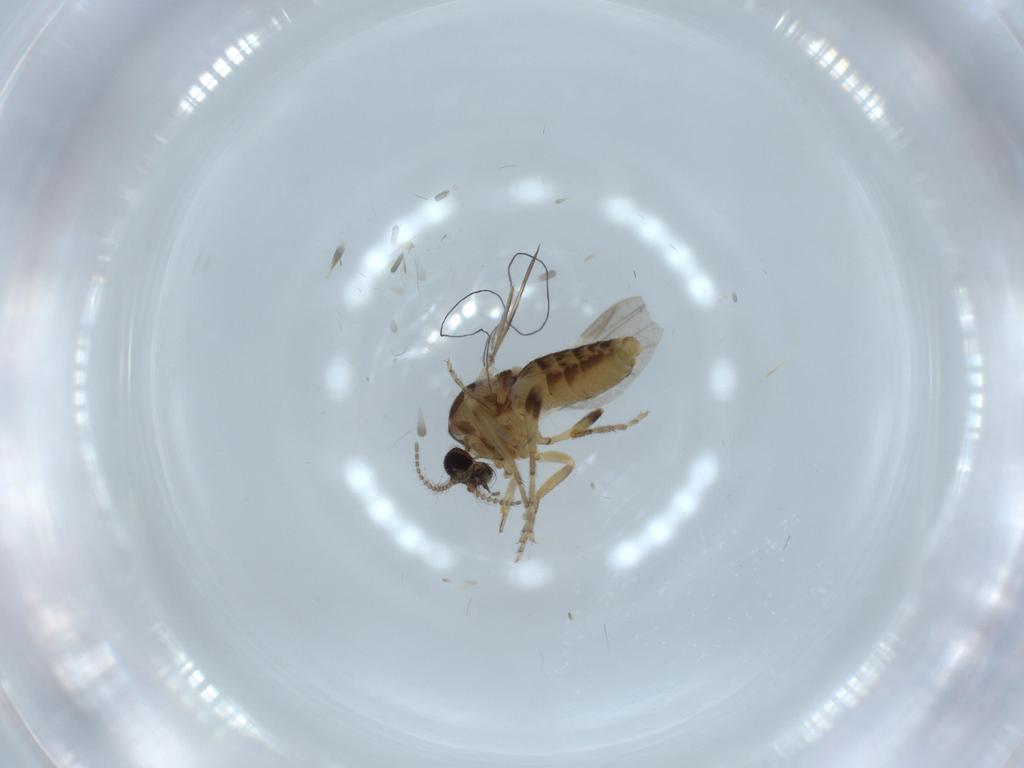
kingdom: Animalia
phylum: Arthropoda
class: Insecta
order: Diptera
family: Ceratopogonidae
